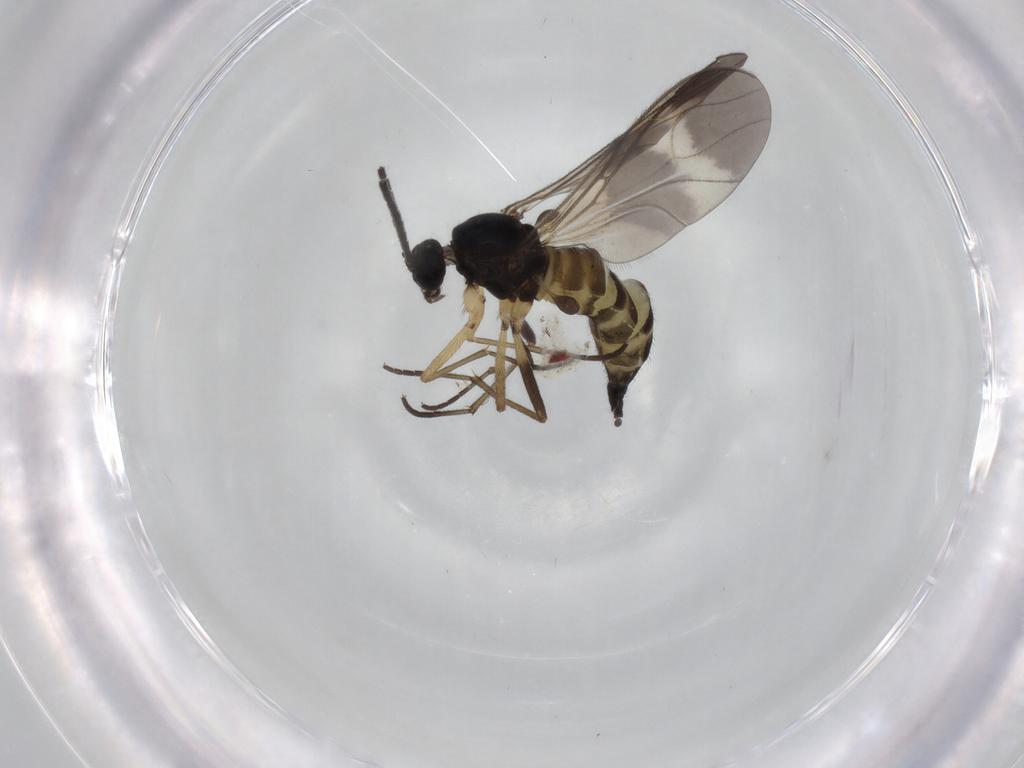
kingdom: Animalia
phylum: Arthropoda
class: Insecta
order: Diptera
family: Sciaridae
